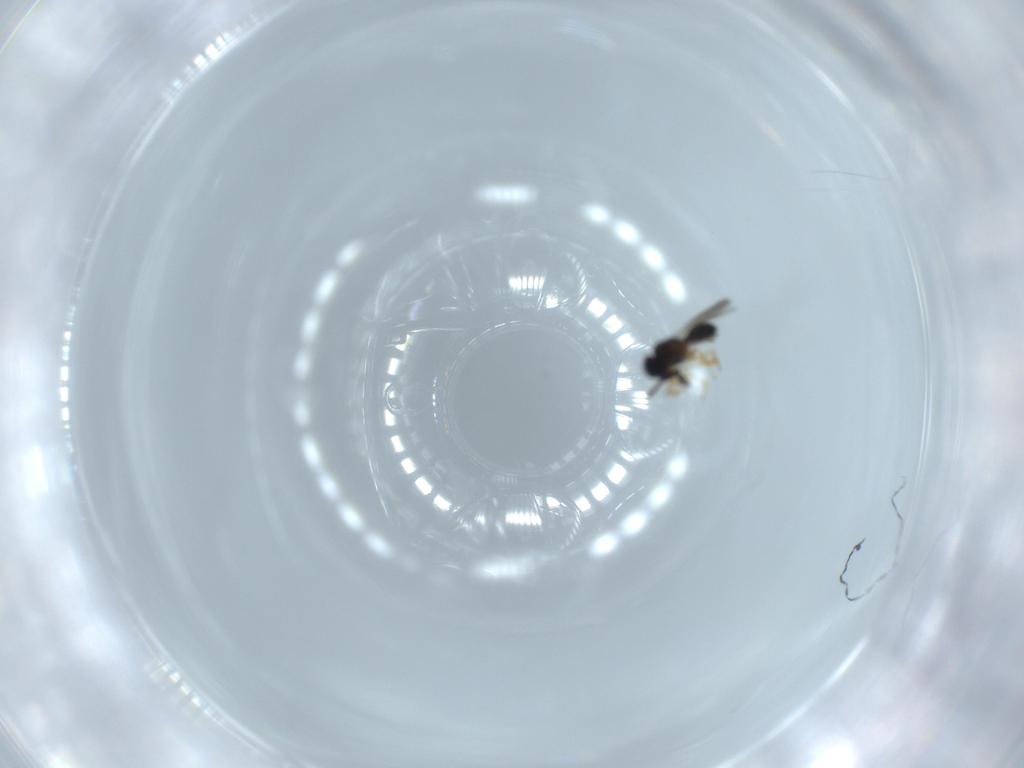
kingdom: Animalia
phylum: Arthropoda
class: Insecta
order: Hymenoptera
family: Scelionidae
